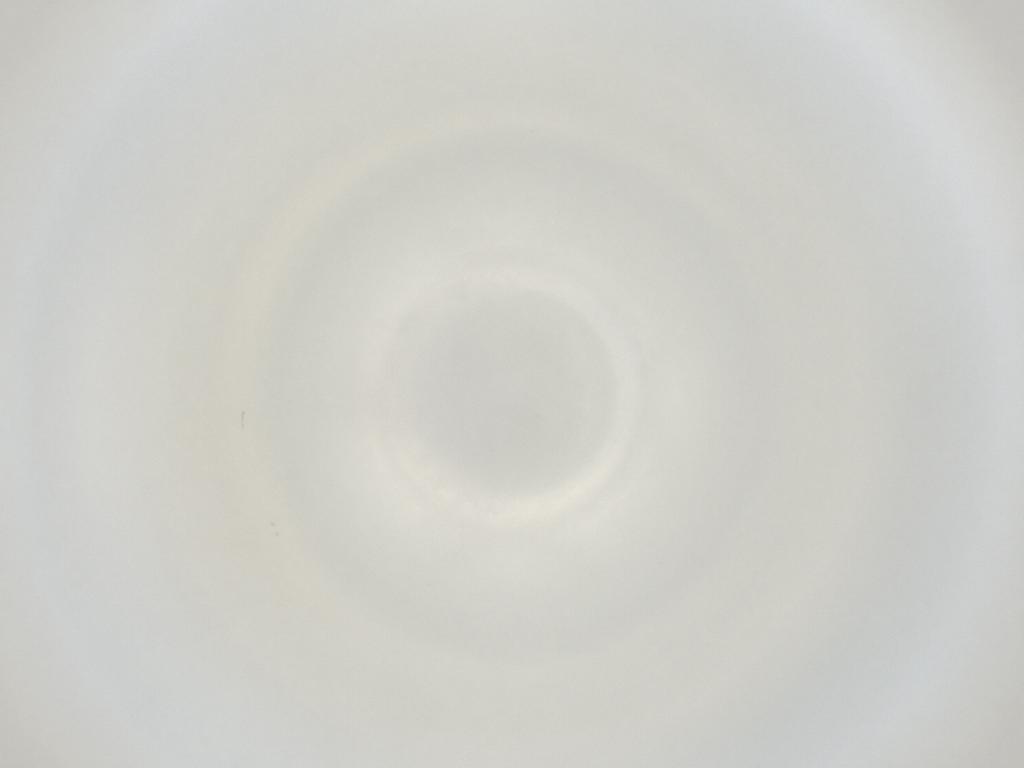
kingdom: Animalia
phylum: Arthropoda
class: Insecta
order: Diptera
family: Cecidomyiidae
